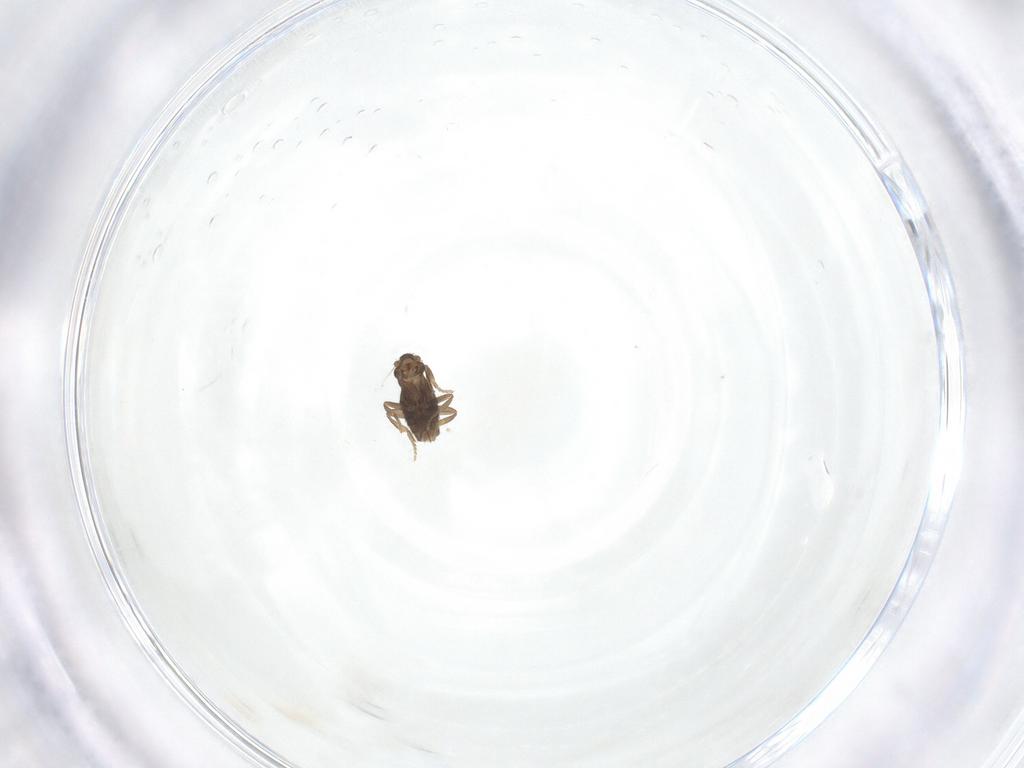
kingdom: Animalia
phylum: Arthropoda
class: Insecta
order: Diptera
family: Phoridae
